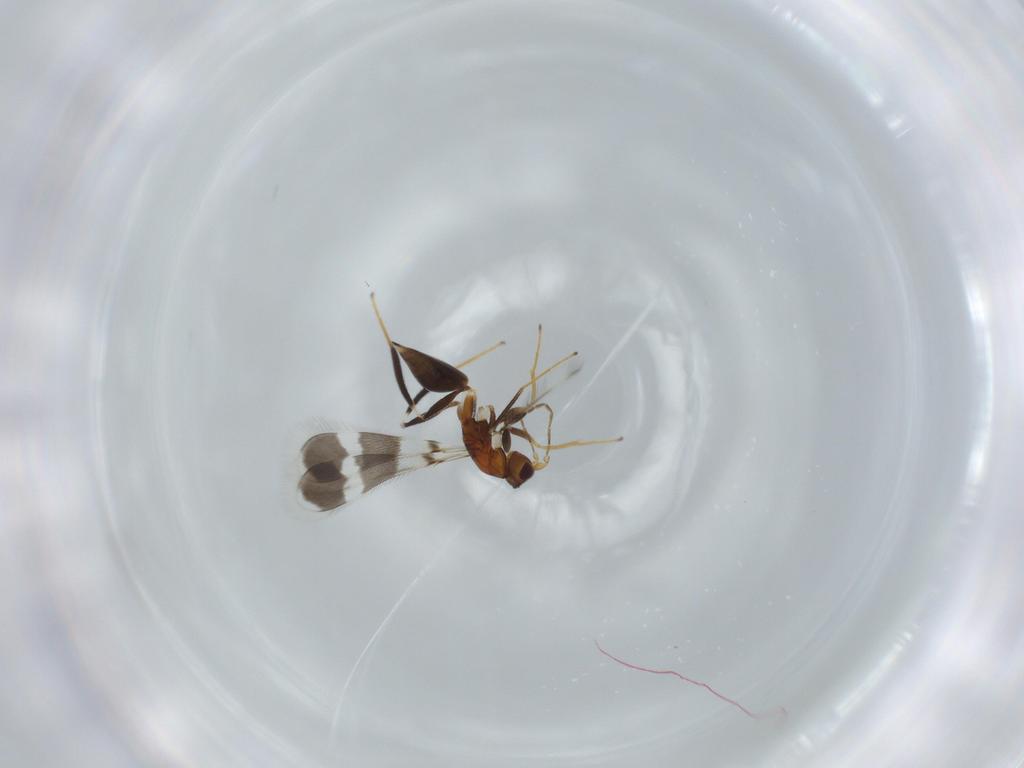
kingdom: Animalia
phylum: Arthropoda
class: Insecta
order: Hymenoptera
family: Mymaridae
